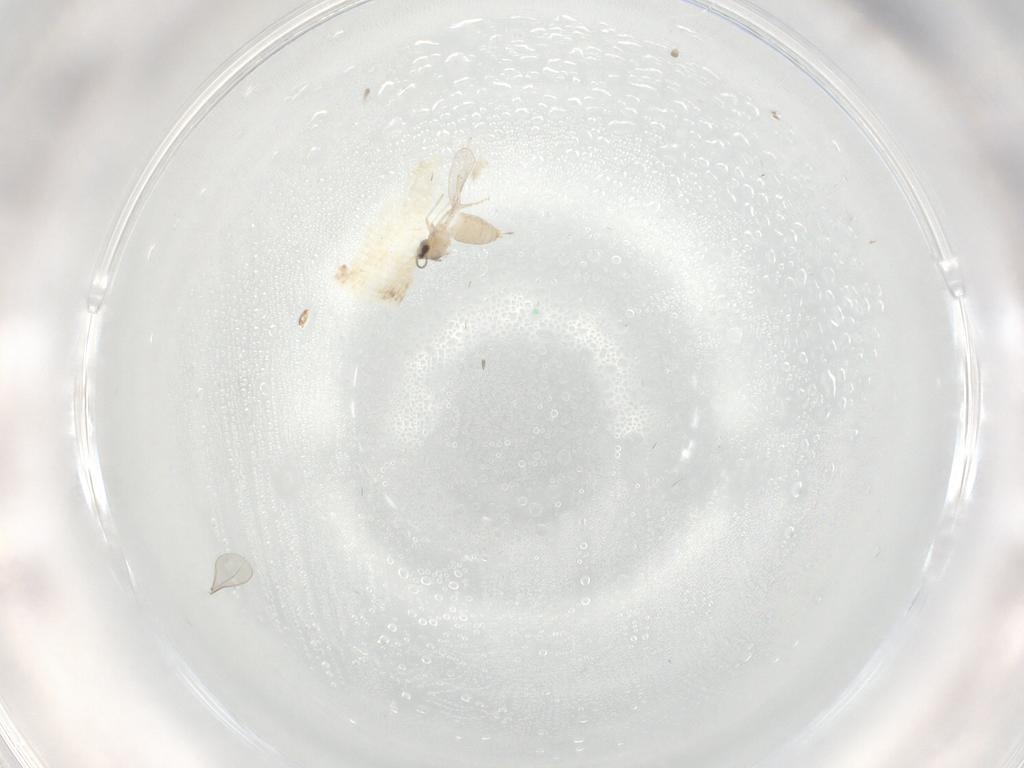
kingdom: Animalia
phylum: Arthropoda
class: Insecta
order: Diptera
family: Cecidomyiidae
